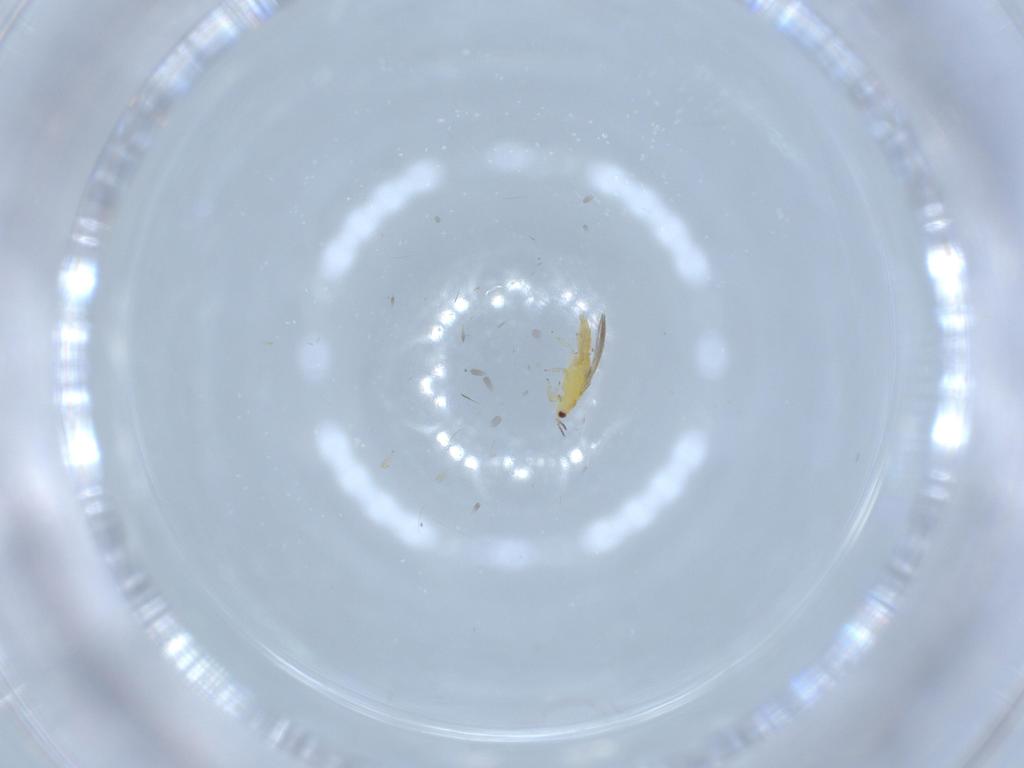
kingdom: Animalia
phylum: Arthropoda
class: Insecta
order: Thysanoptera
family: Thripidae
